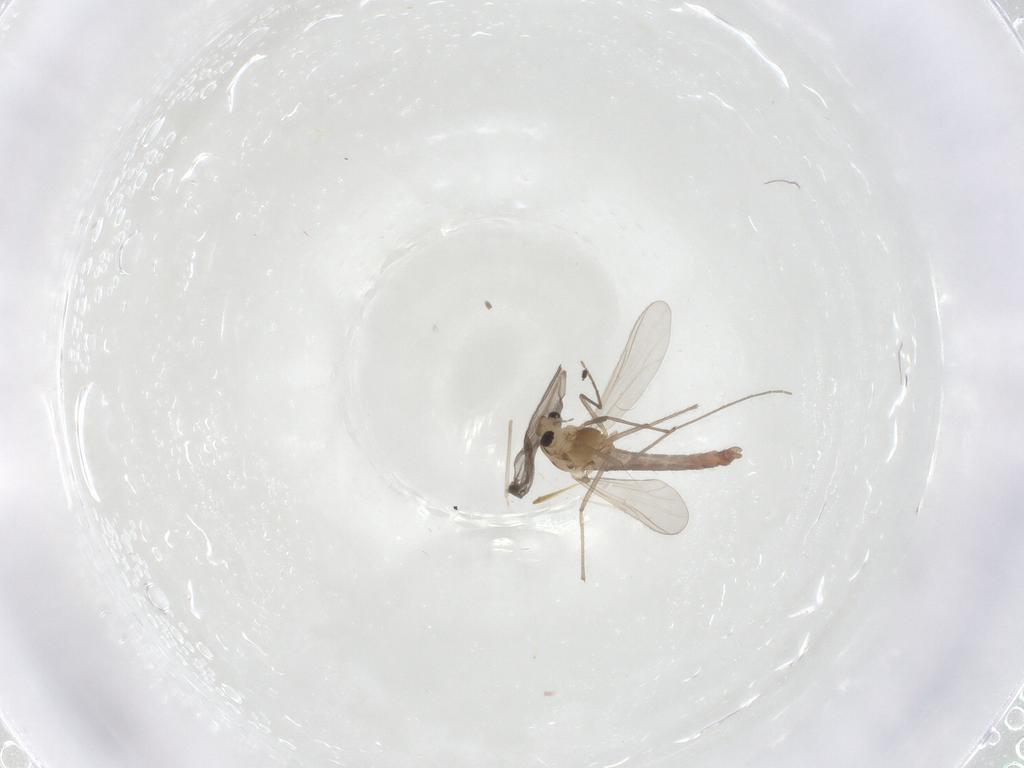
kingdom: Animalia
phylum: Arthropoda
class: Insecta
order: Diptera
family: Chironomidae
